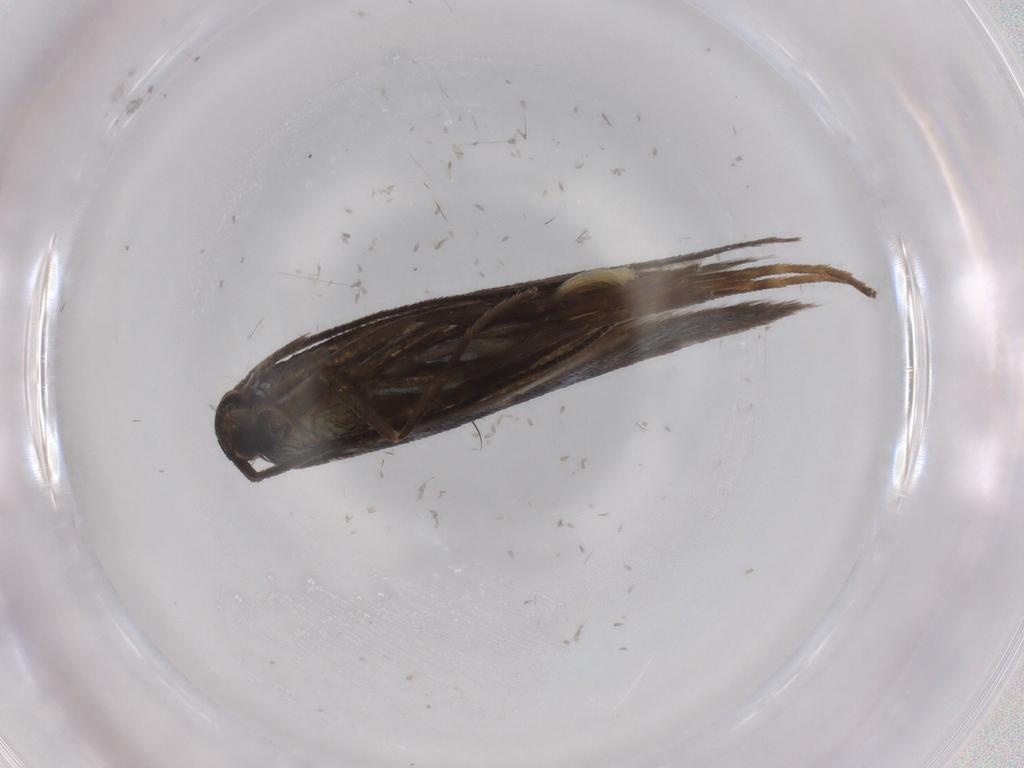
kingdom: Animalia
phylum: Arthropoda
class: Insecta
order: Lepidoptera
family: Argyresthiidae
